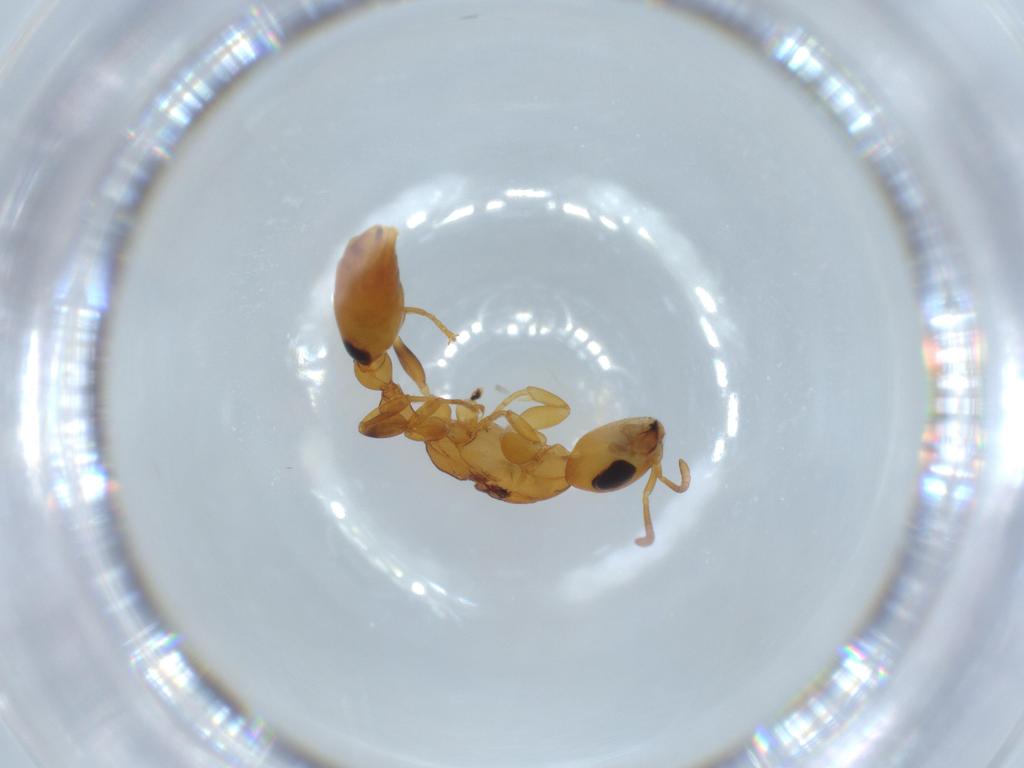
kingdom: Animalia
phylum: Arthropoda
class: Insecta
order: Hymenoptera
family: Formicidae
